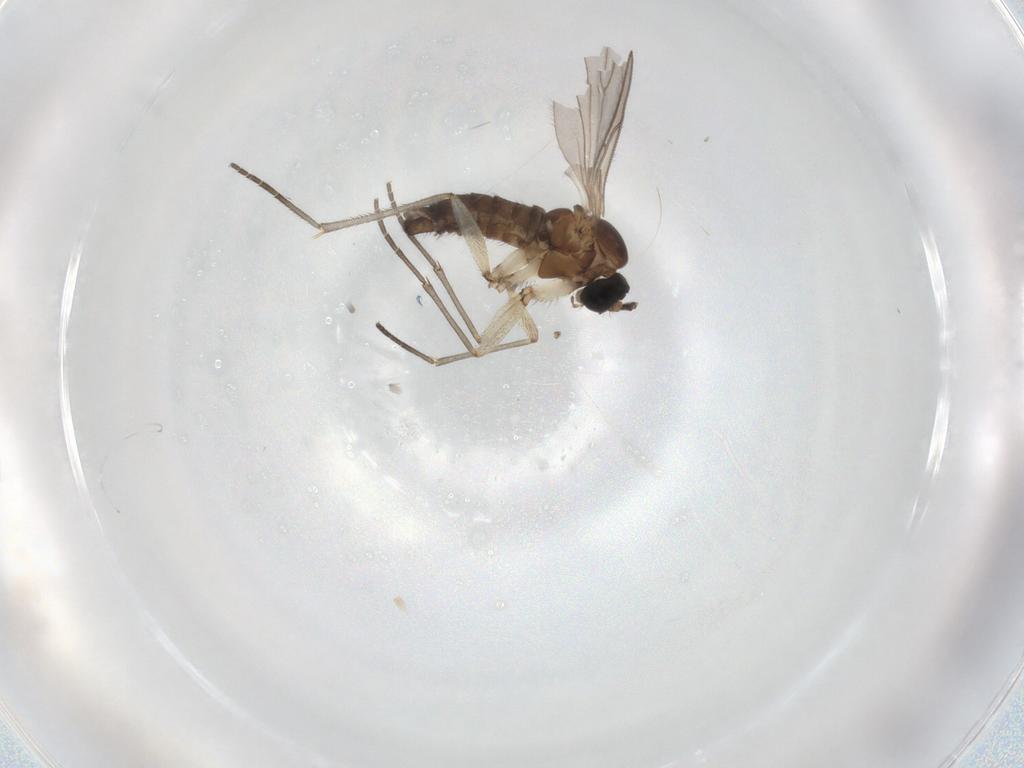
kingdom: Animalia
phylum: Arthropoda
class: Insecta
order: Diptera
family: Sciaridae
